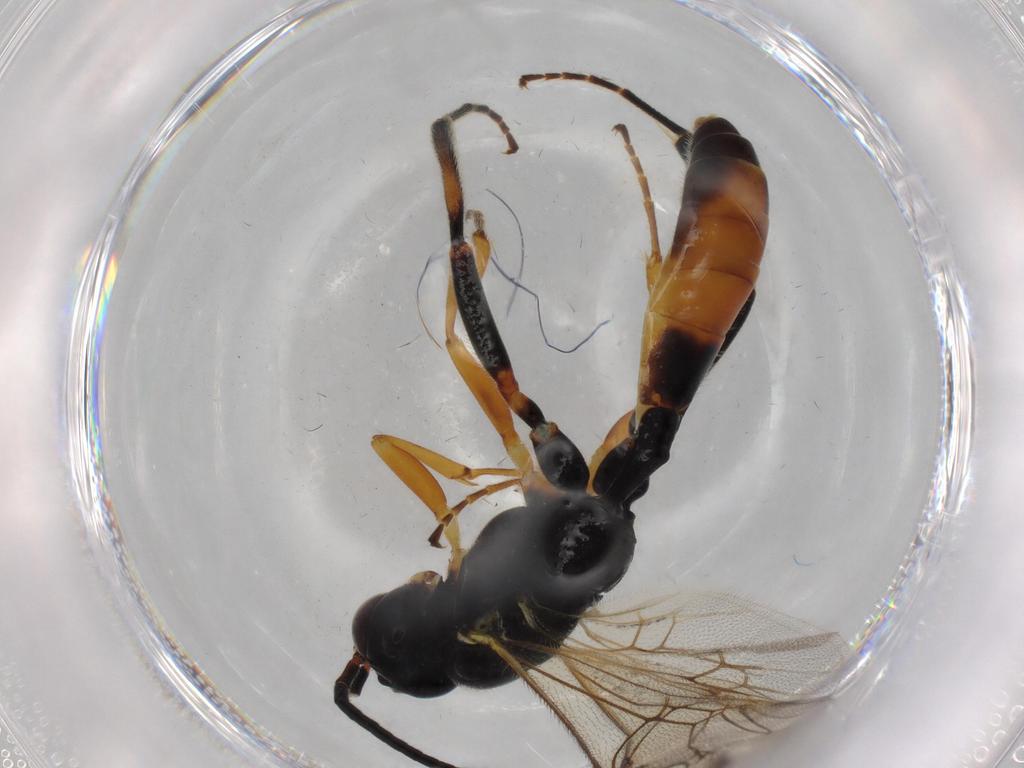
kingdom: Animalia
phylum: Arthropoda
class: Insecta
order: Hymenoptera
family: Ichneumonidae
